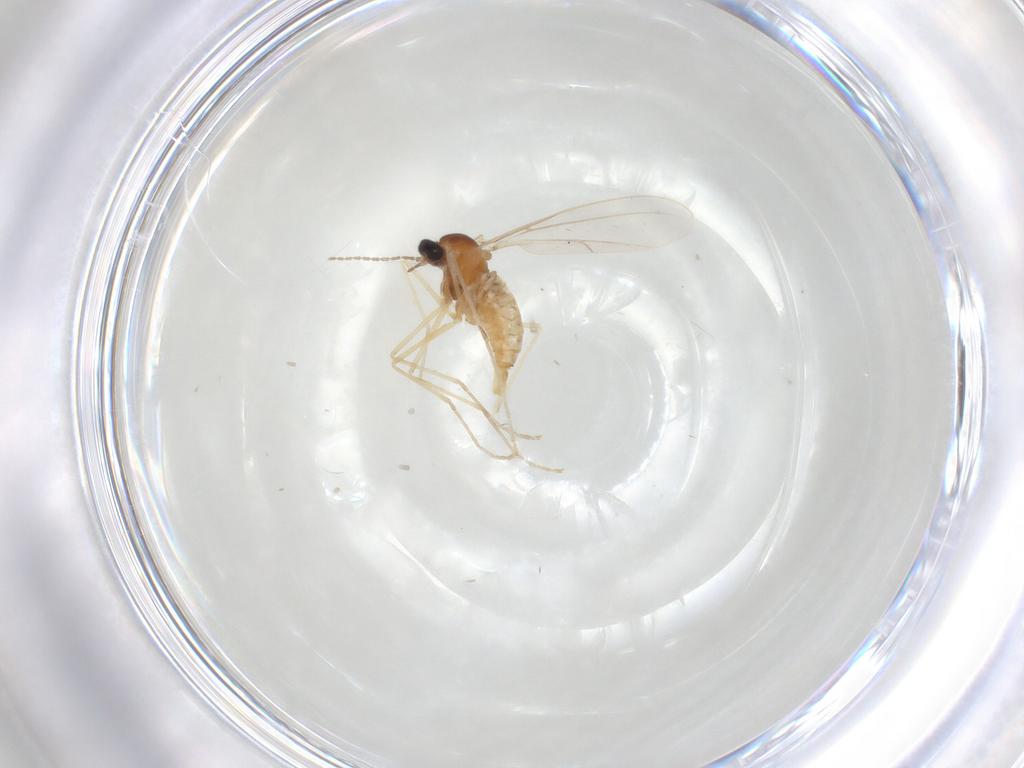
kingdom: Animalia
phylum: Arthropoda
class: Insecta
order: Diptera
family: Cecidomyiidae
